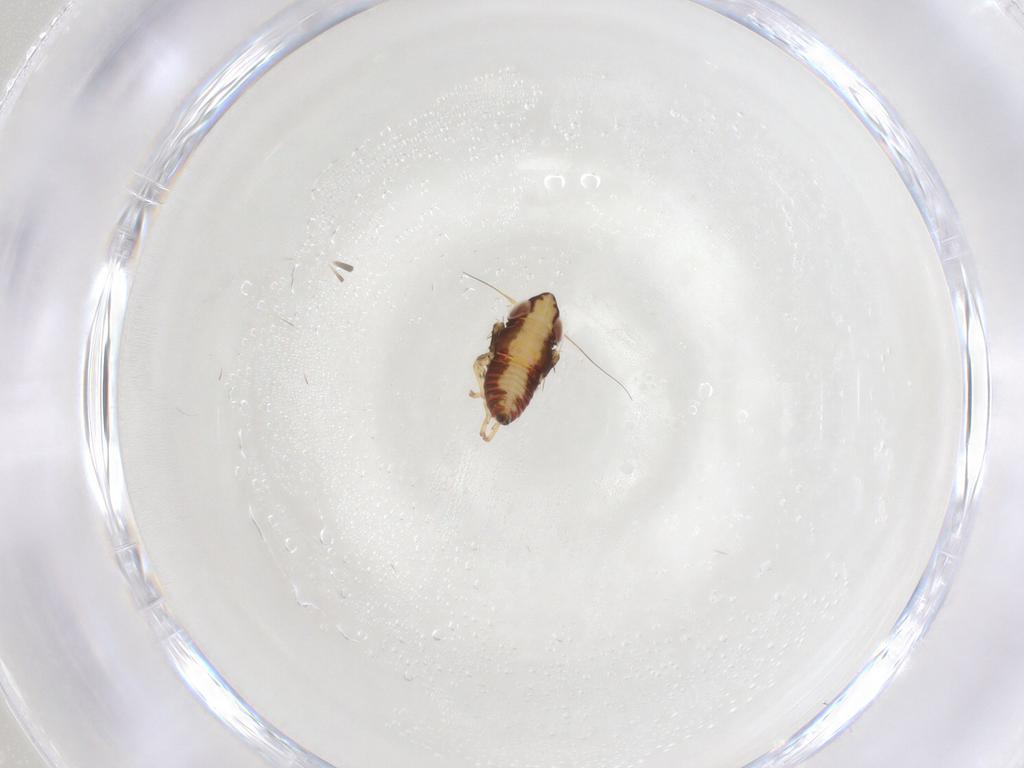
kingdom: Animalia
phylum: Arthropoda
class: Insecta
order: Hemiptera
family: Cicadellidae
